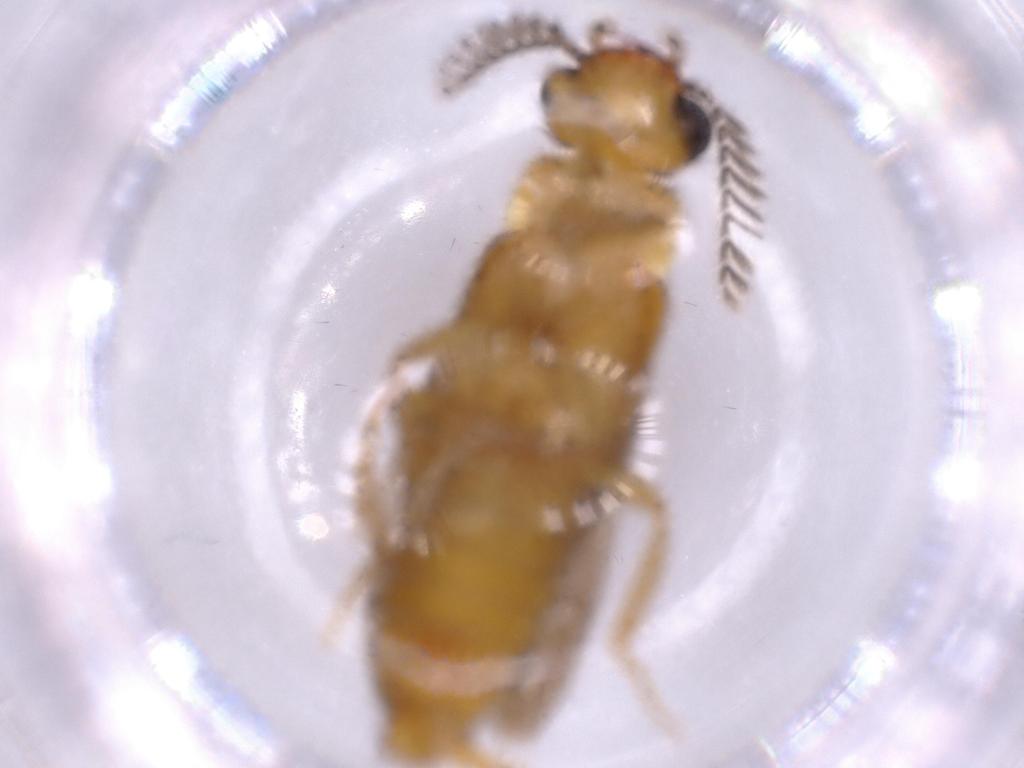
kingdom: Animalia
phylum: Arthropoda
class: Insecta
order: Coleoptera
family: Phengodidae
